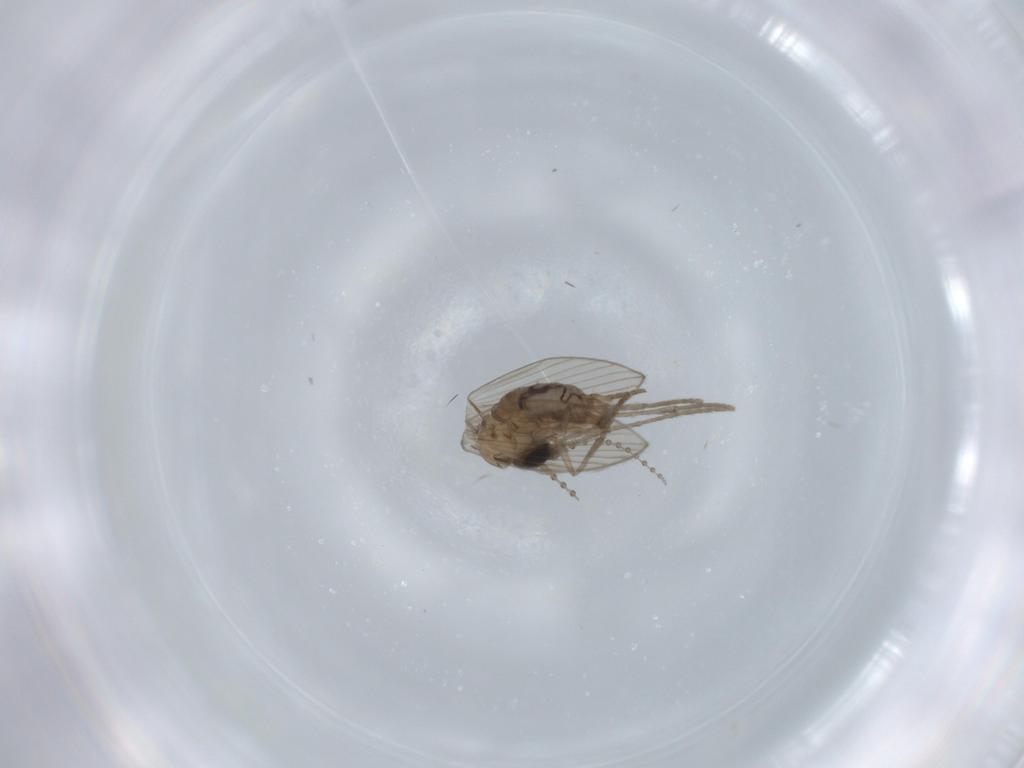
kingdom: Animalia
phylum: Arthropoda
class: Insecta
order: Diptera
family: Psychodidae
